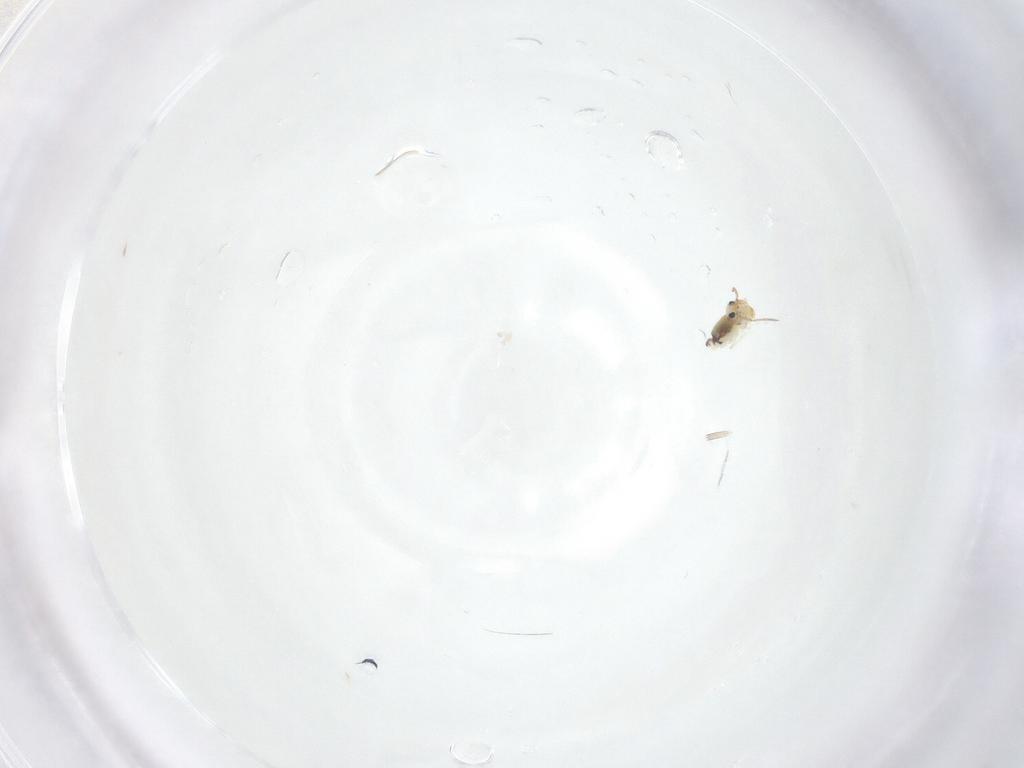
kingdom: Animalia
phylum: Arthropoda
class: Collembola
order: Symphypleona
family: Bourletiellidae
